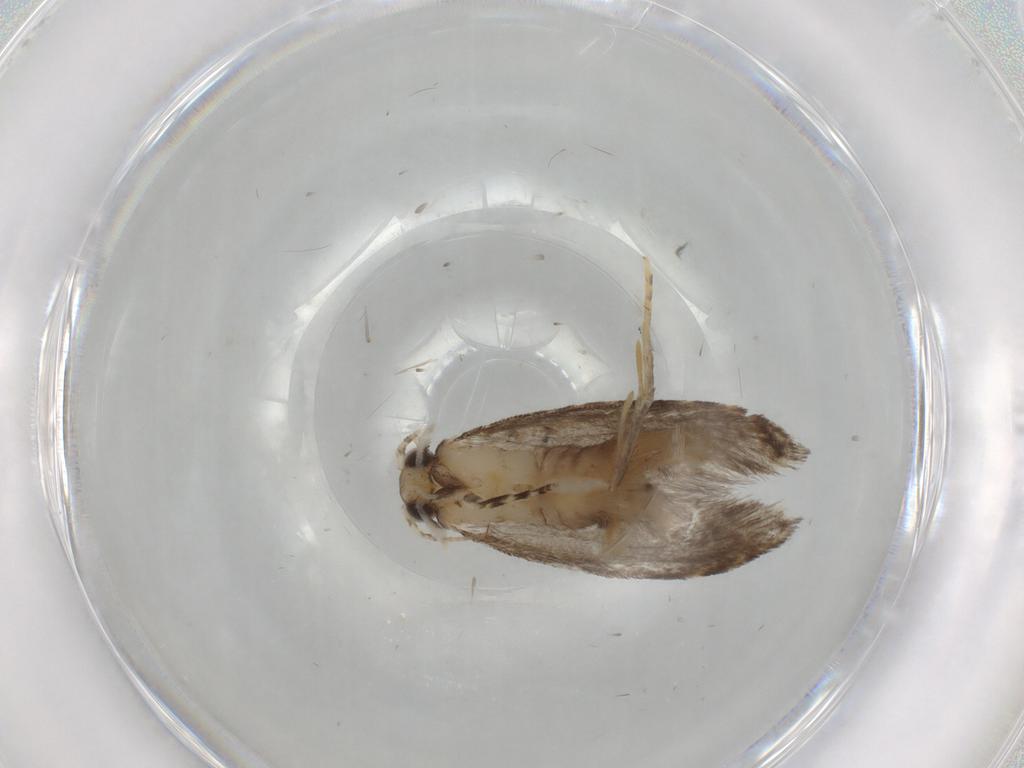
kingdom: Animalia
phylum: Arthropoda
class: Insecta
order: Lepidoptera
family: Tineidae
